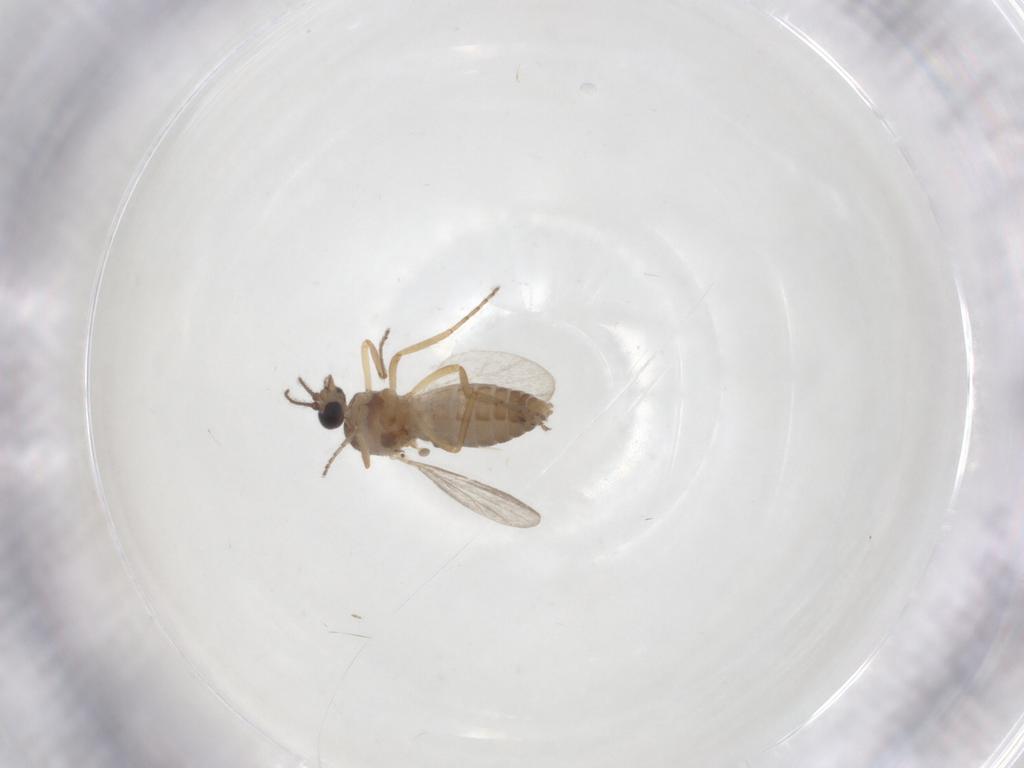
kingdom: Animalia
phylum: Arthropoda
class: Insecta
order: Diptera
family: Ceratopogonidae
